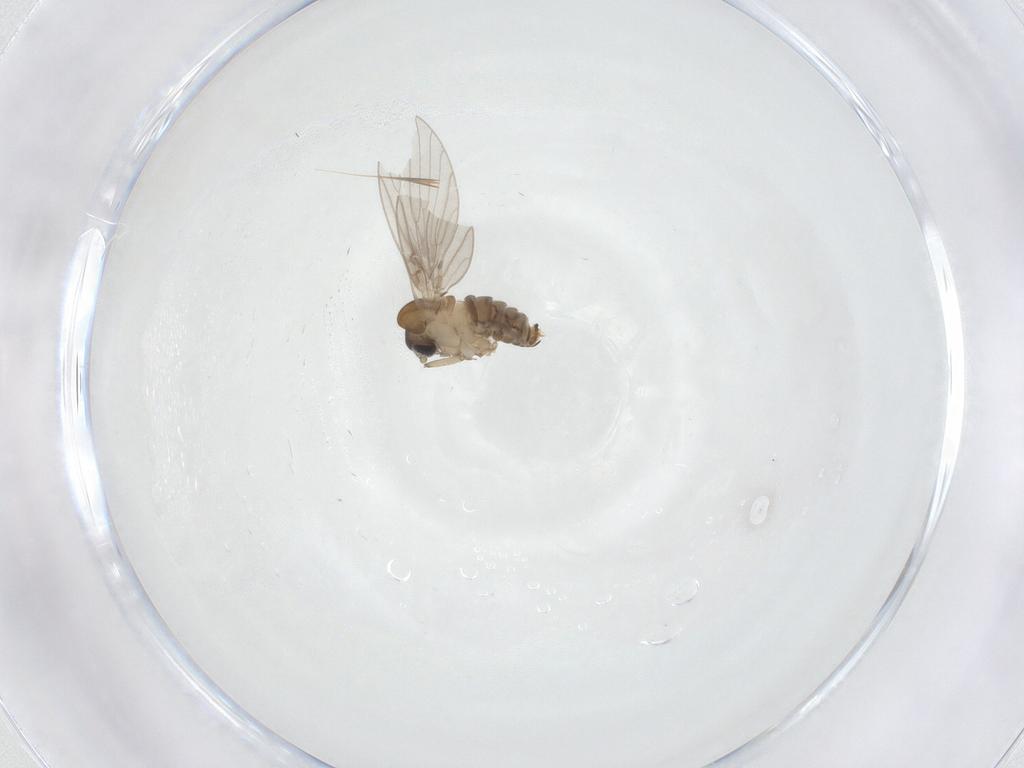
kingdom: Animalia
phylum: Arthropoda
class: Insecta
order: Diptera
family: Psychodidae
